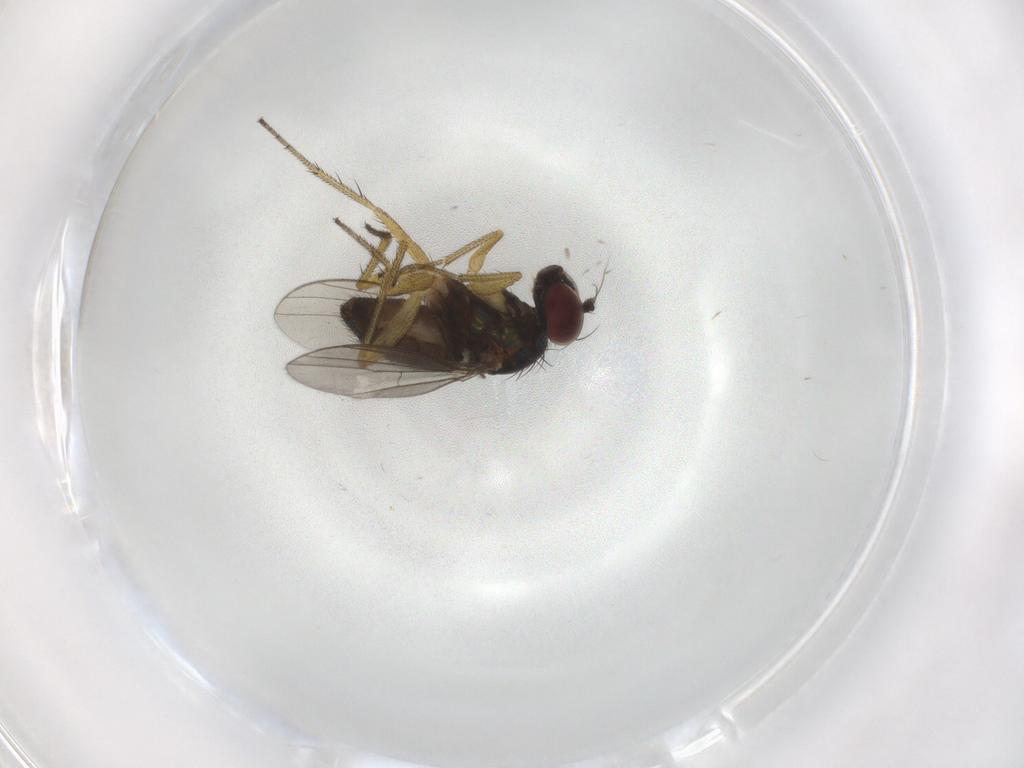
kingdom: Animalia
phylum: Arthropoda
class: Insecta
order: Diptera
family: Dolichopodidae
